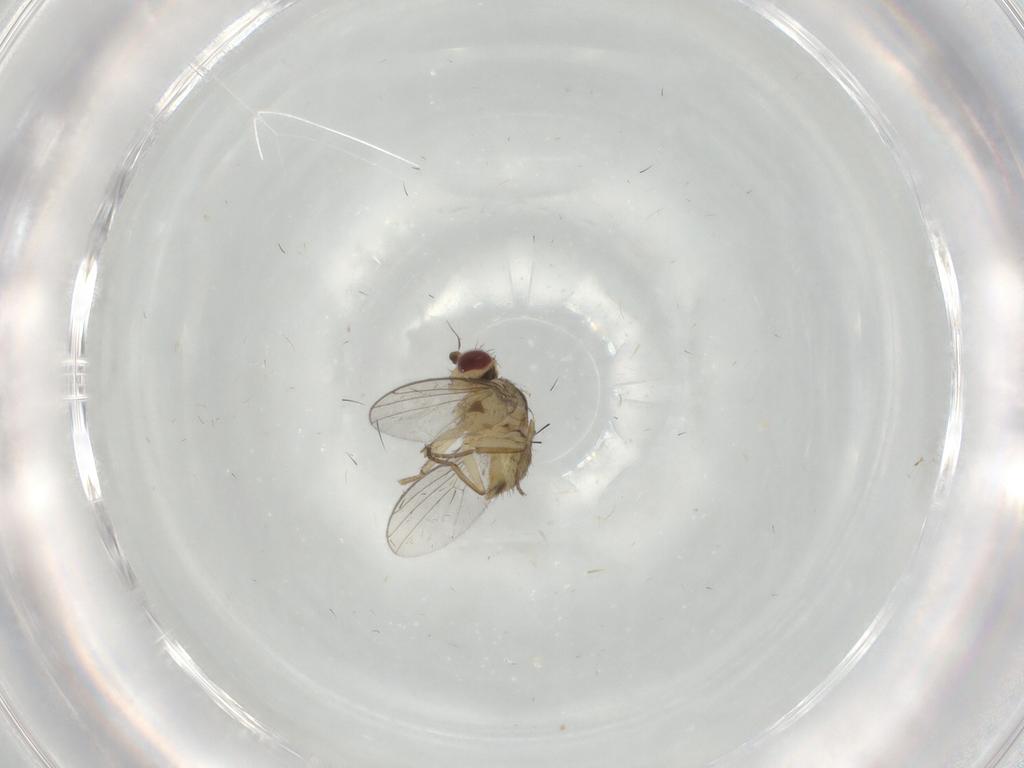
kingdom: Animalia
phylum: Arthropoda
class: Insecta
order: Diptera
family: Agromyzidae
